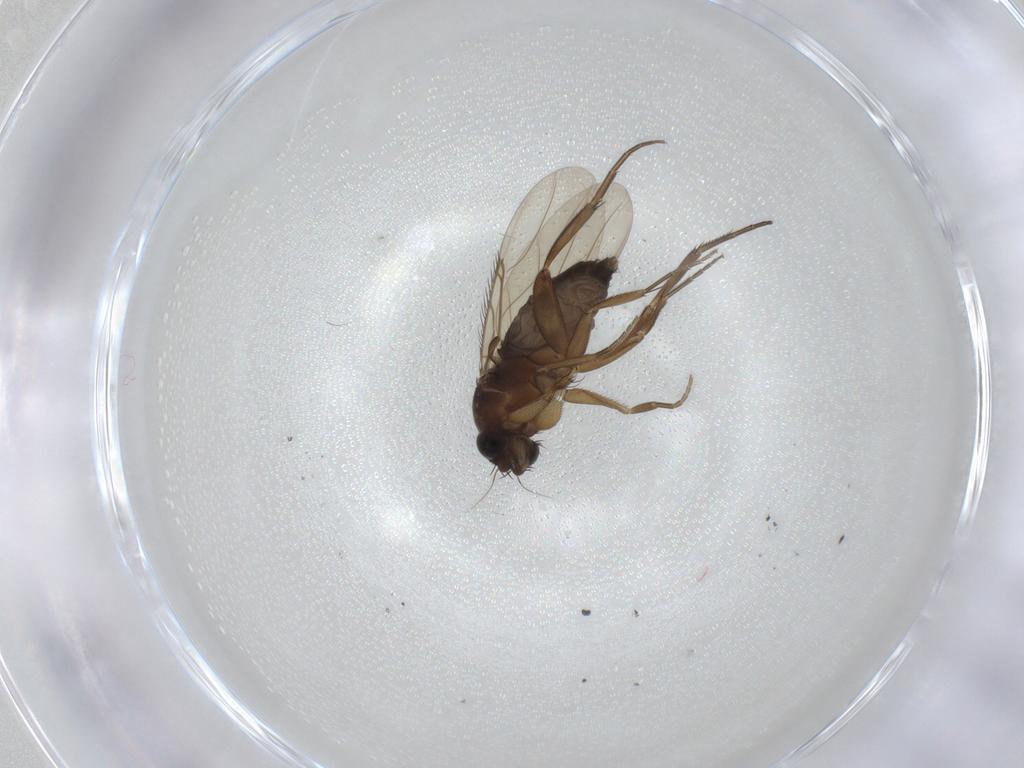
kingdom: Animalia
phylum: Arthropoda
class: Insecta
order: Diptera
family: Phoridae
